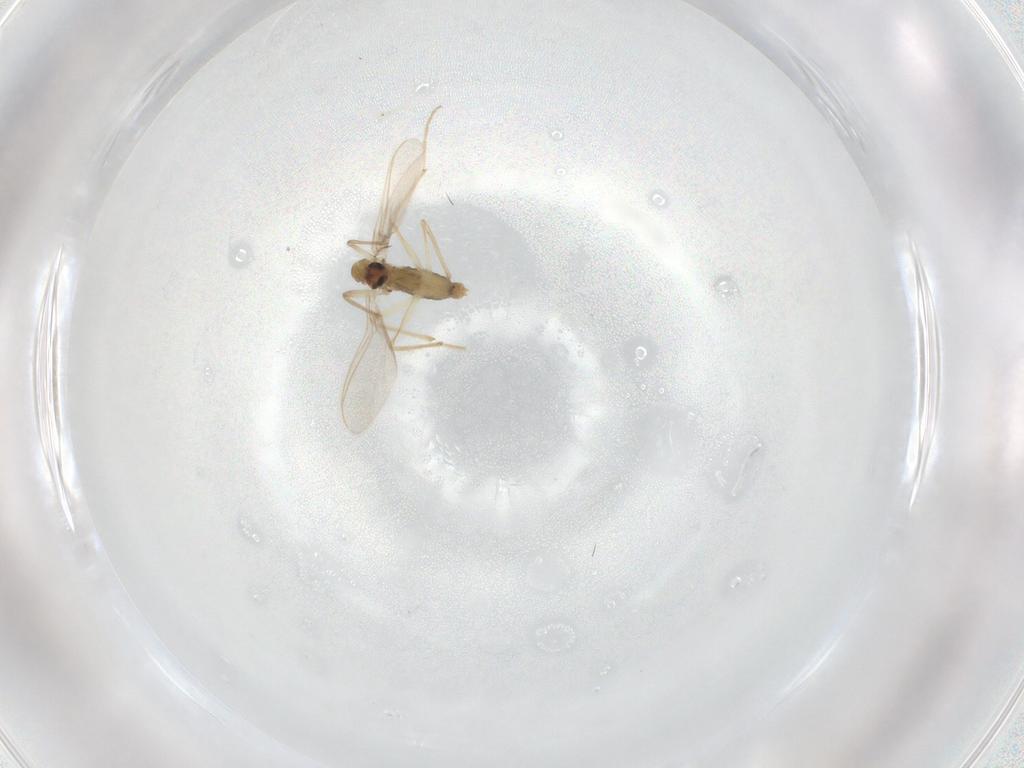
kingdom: Animalia
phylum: Arthropoda
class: Insecta
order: Diptera
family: Chironomidae
